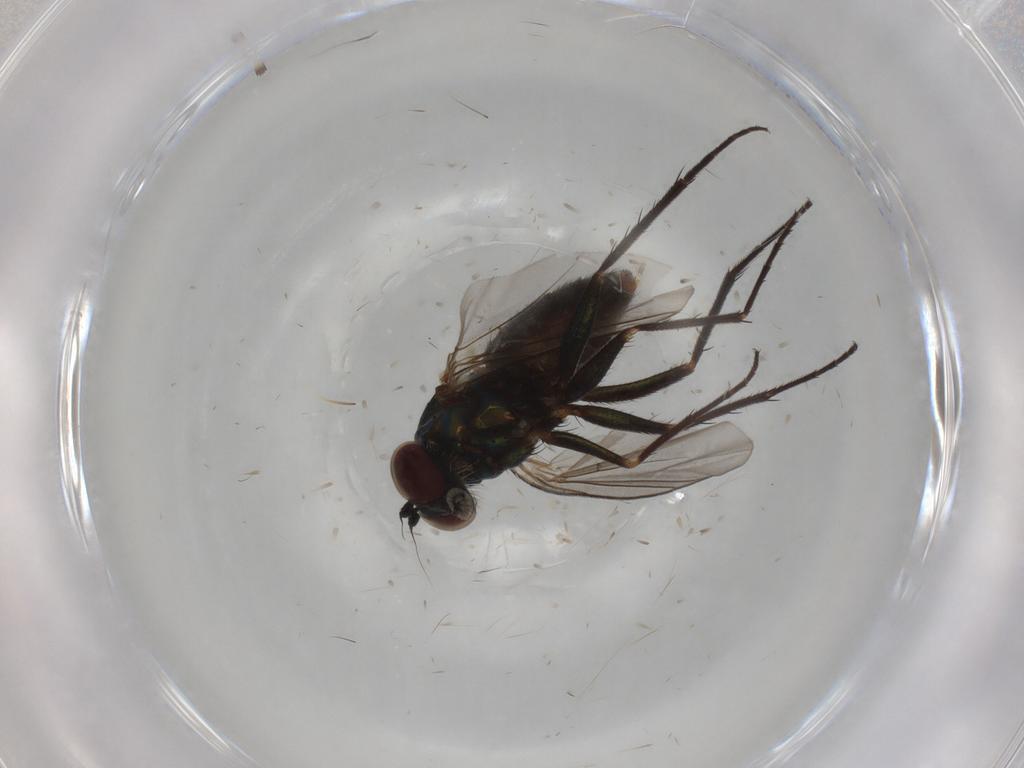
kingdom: Animalia
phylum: Arthropoda
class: Insecta
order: Diptera
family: Dolichopodidae
